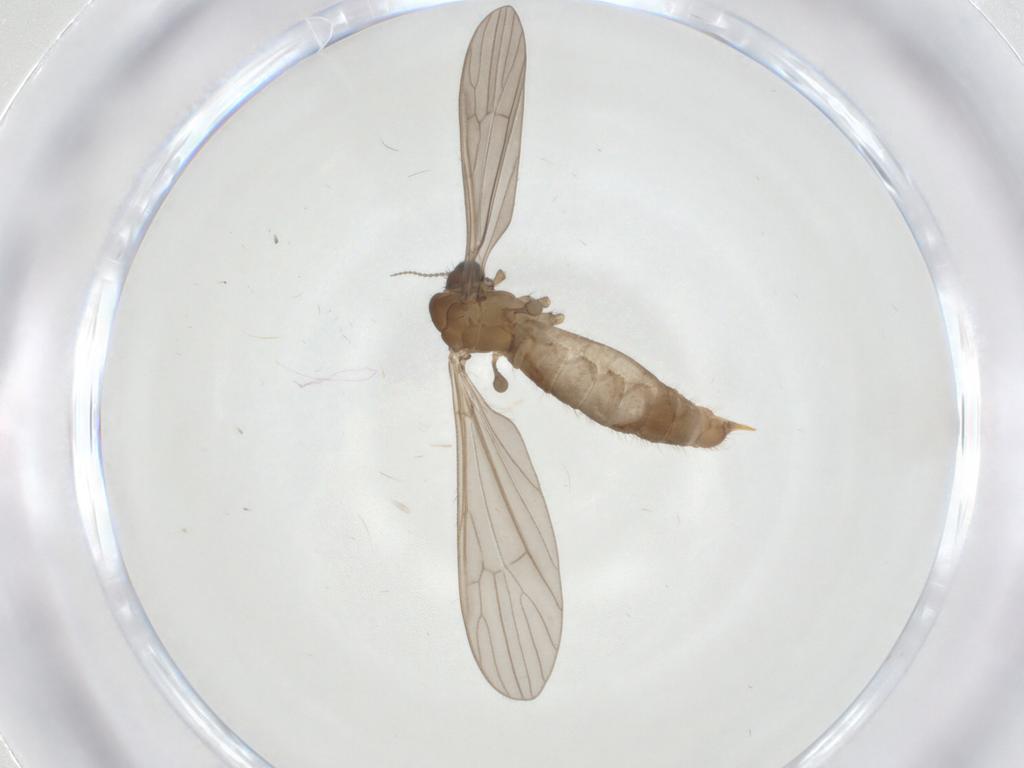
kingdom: Animalia
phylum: Arthropoda
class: Insecta
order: Diptera
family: Limoniidae
